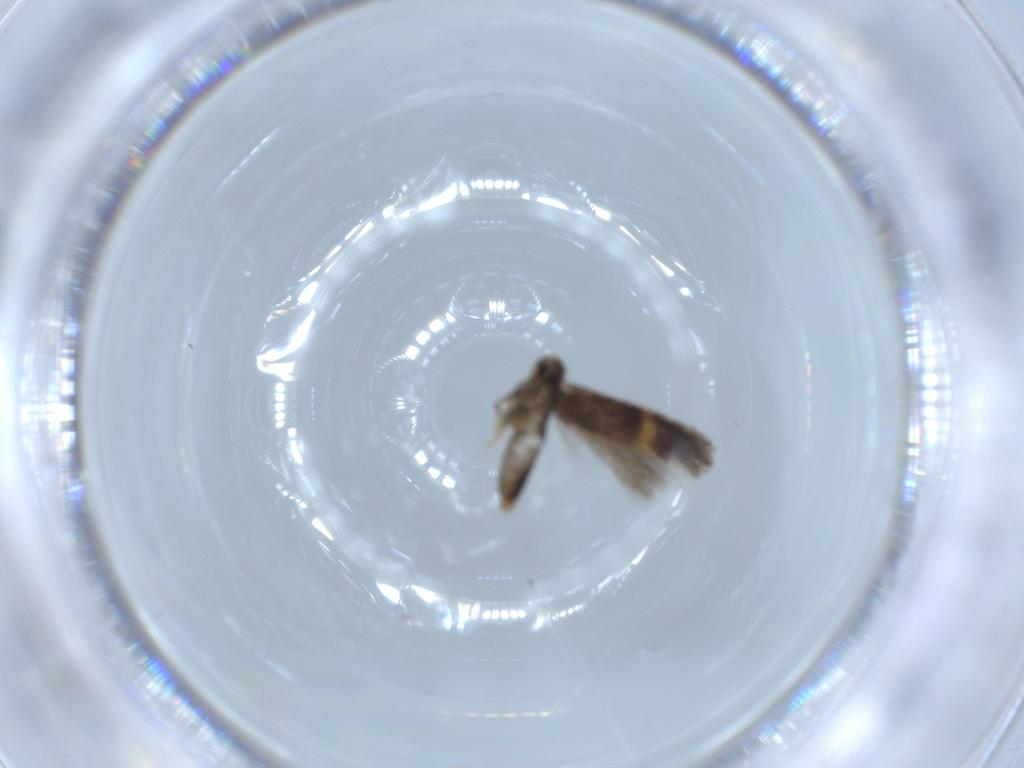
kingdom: Animalia
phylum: Arthropoda
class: Insecta
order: Lepidoptera
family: Nepticulidae
